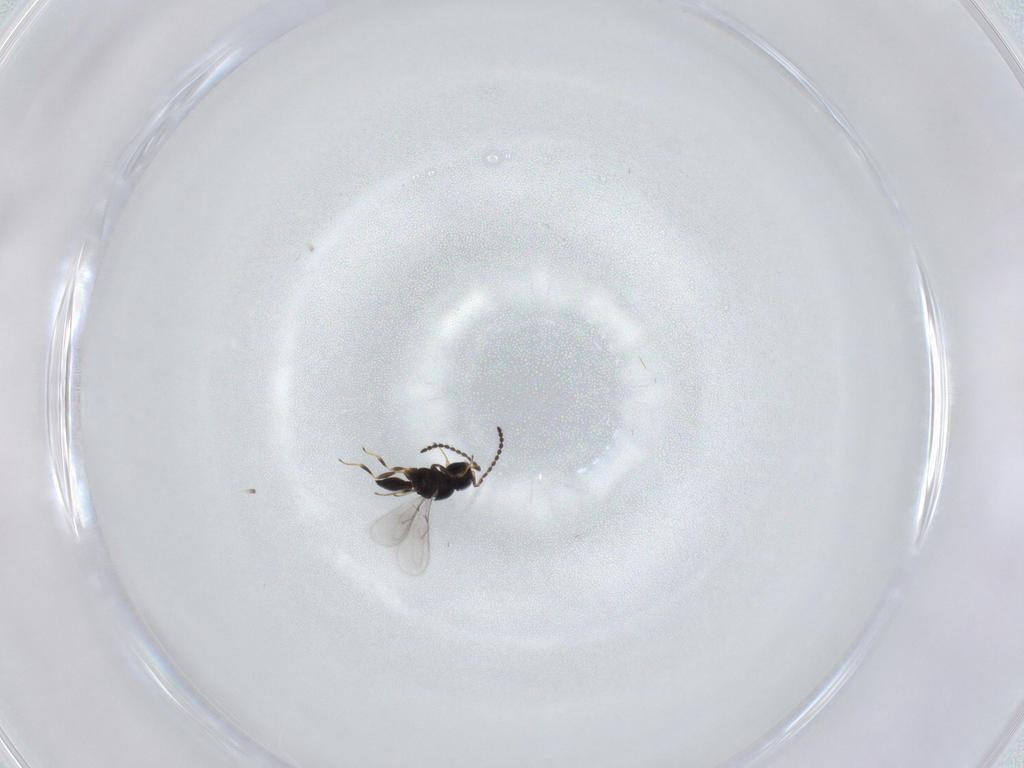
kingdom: Animalia
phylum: Arthropoda
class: Insecta
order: Hymenoptera
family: Scelionidae
